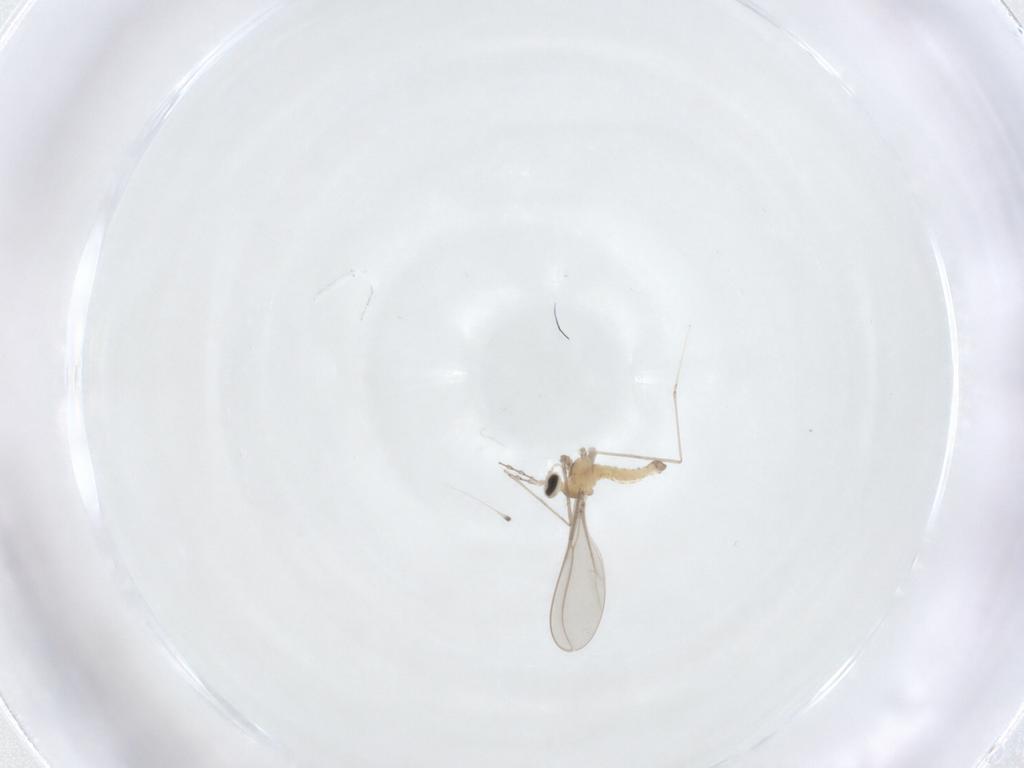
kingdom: Animalia
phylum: Arthropoda
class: Insecta
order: Diptera
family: Cecidomyiidae
